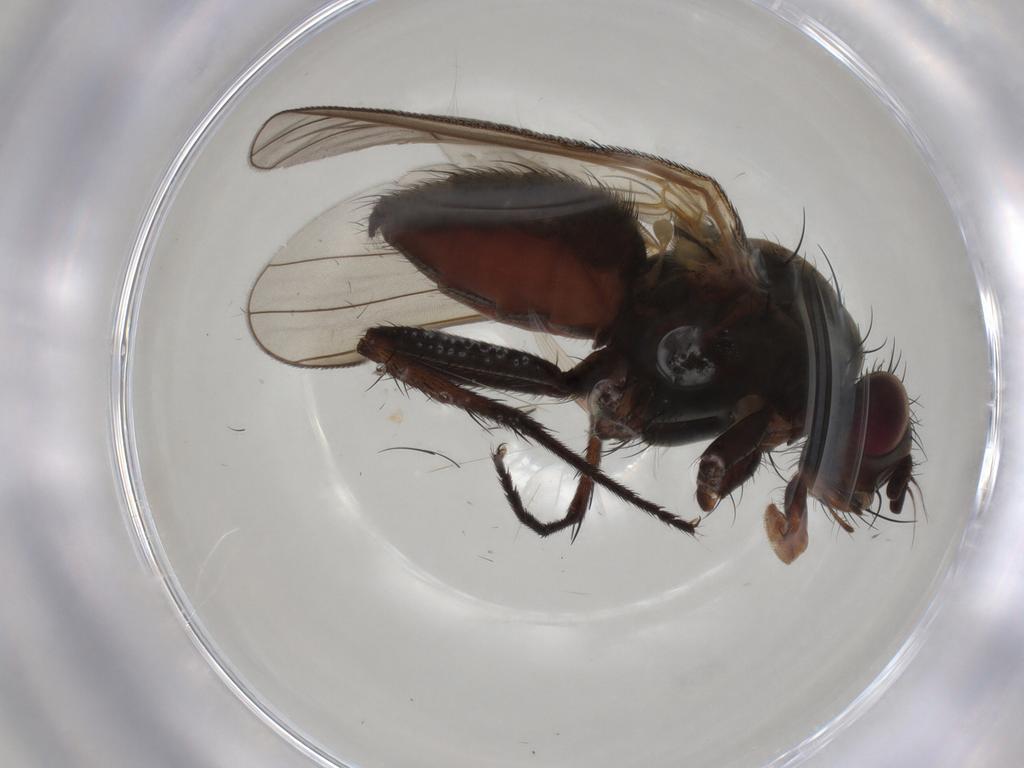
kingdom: Animalia
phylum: Arthropoda
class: Insecta
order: Diptera
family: Anthomyiidae
